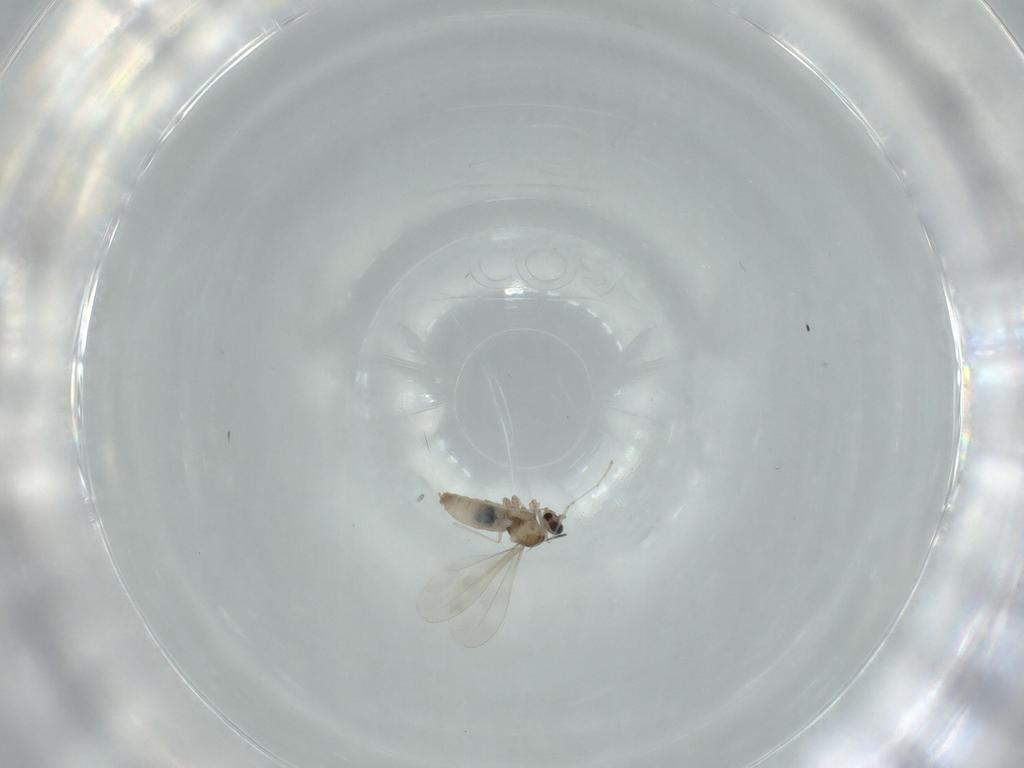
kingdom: Animalia
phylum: Arthropoda
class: Insecta
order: Diptera
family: Cecidomyiidae
